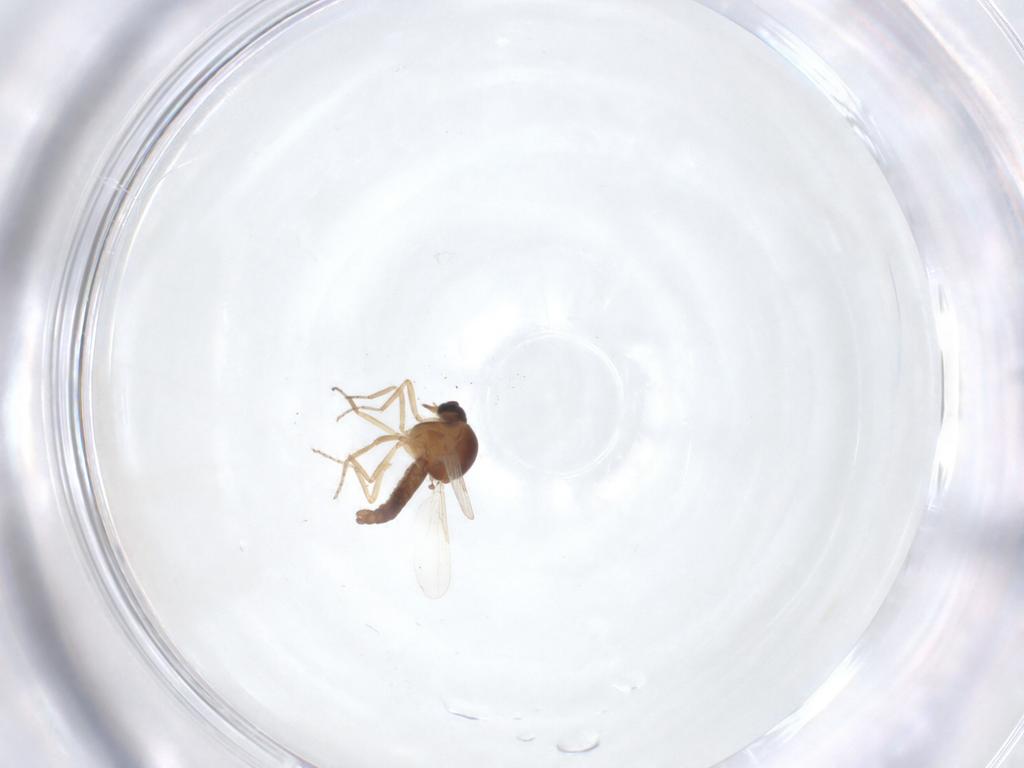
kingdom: Animalia
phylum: Arthropoda
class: Insecta
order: Diptera
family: Ceratopogonidae
